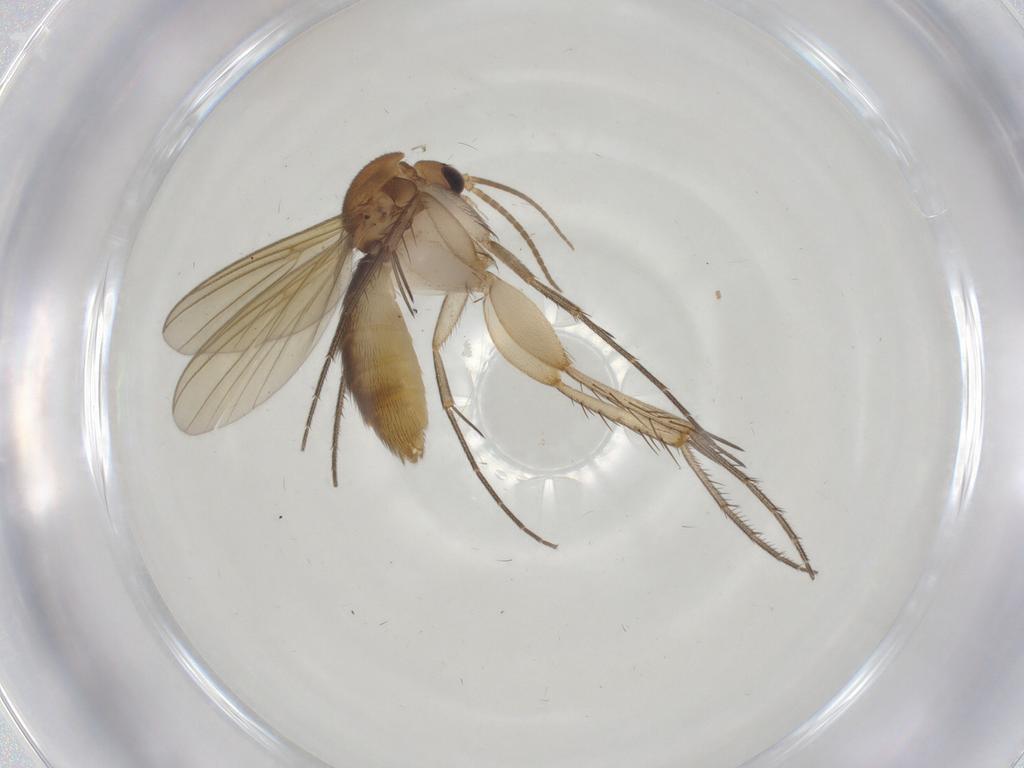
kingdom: Animalia
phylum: Arthropoda
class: Insecta
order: Diptera
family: Mycetophilidae
